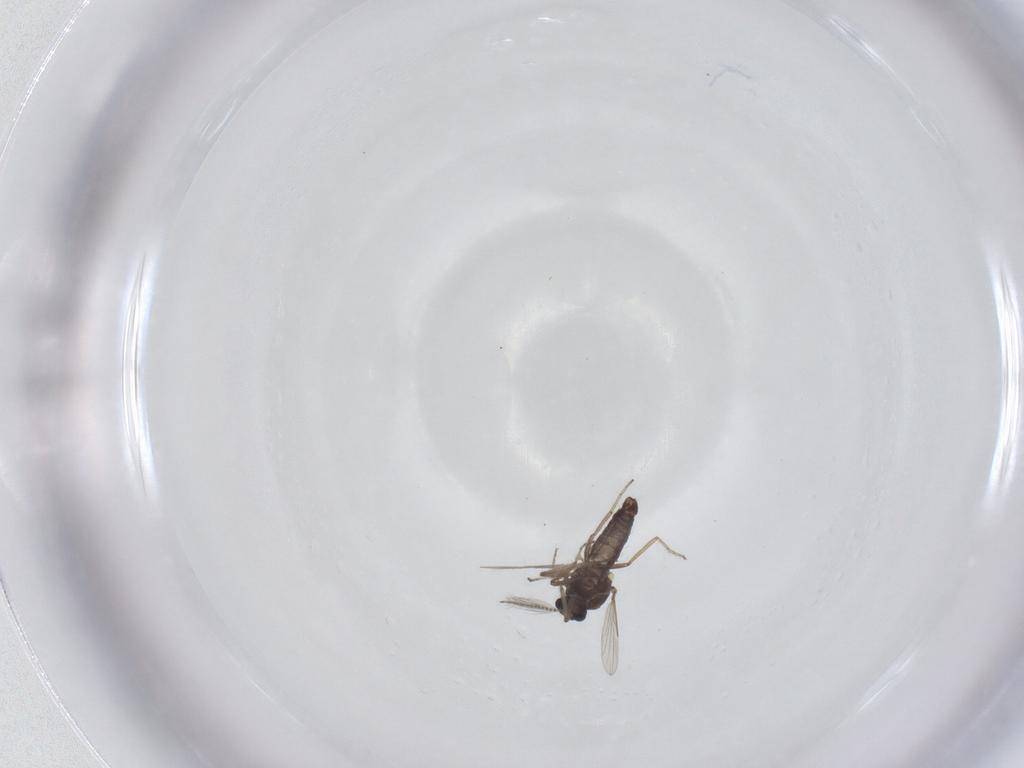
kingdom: Animalia
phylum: Arthropoda
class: Insecta
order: Diptera
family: Ceratopogonidae
